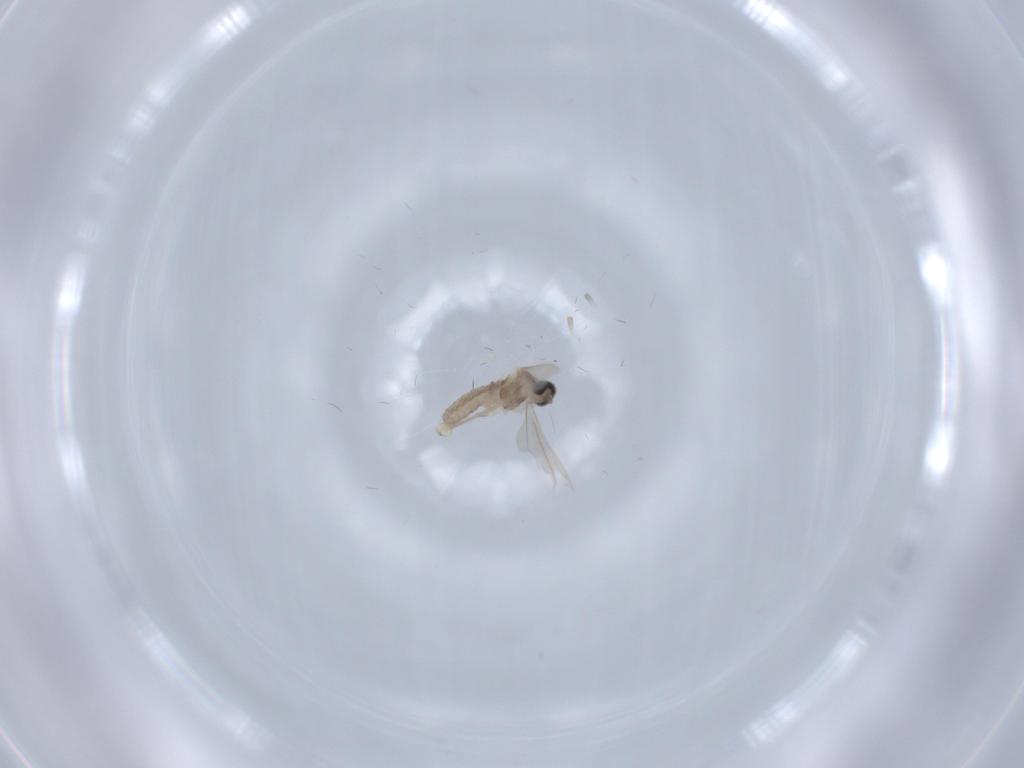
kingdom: Animalia
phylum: Arthropoda
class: Insecta
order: Diptera
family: Cecidomyiidae
